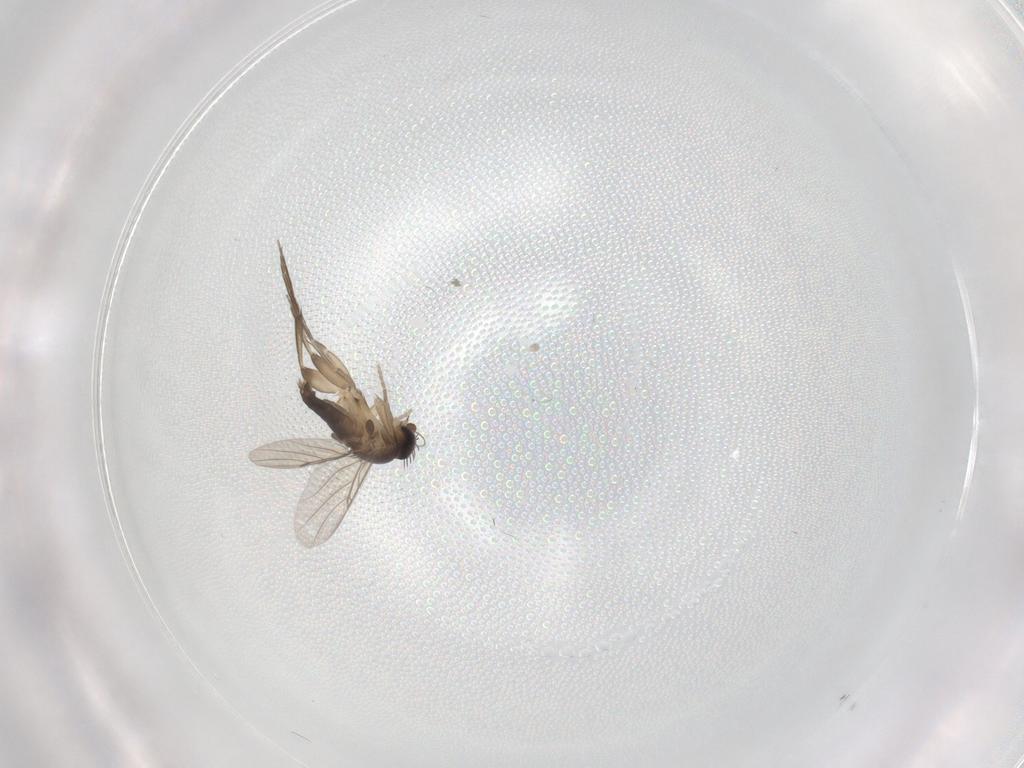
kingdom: Animalia
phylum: Arthropoda
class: Insecta
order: Diptera
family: Phoridae
